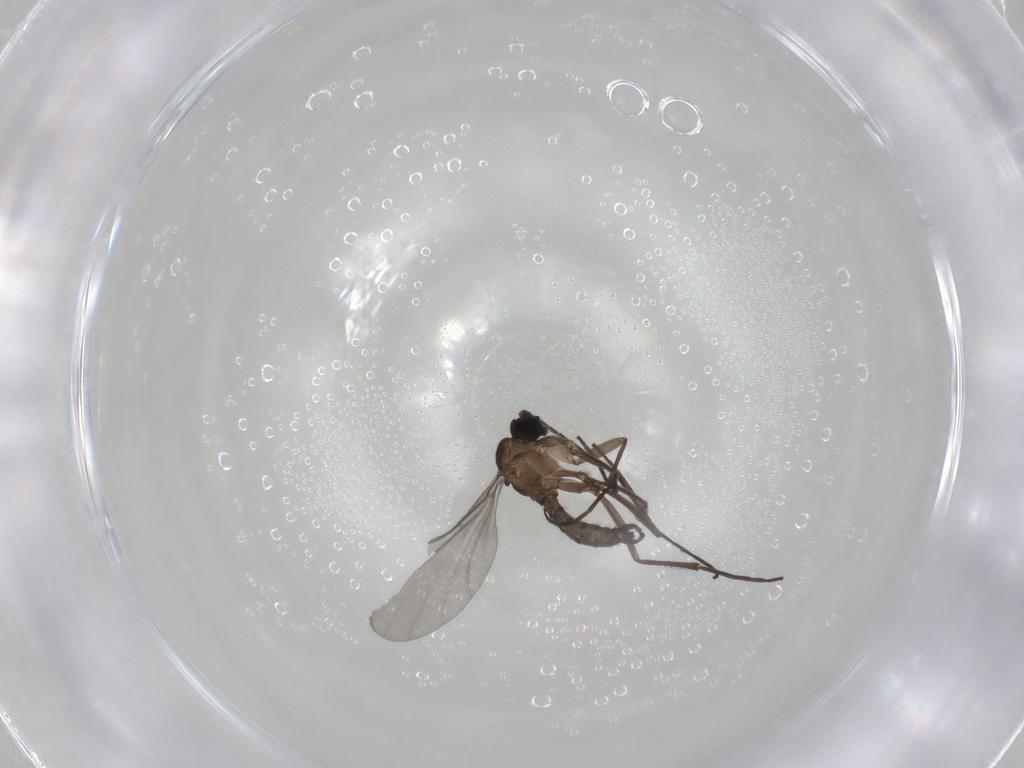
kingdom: Animalia
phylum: Arthropoda
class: Insecta
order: Diptera
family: Sciaridae
